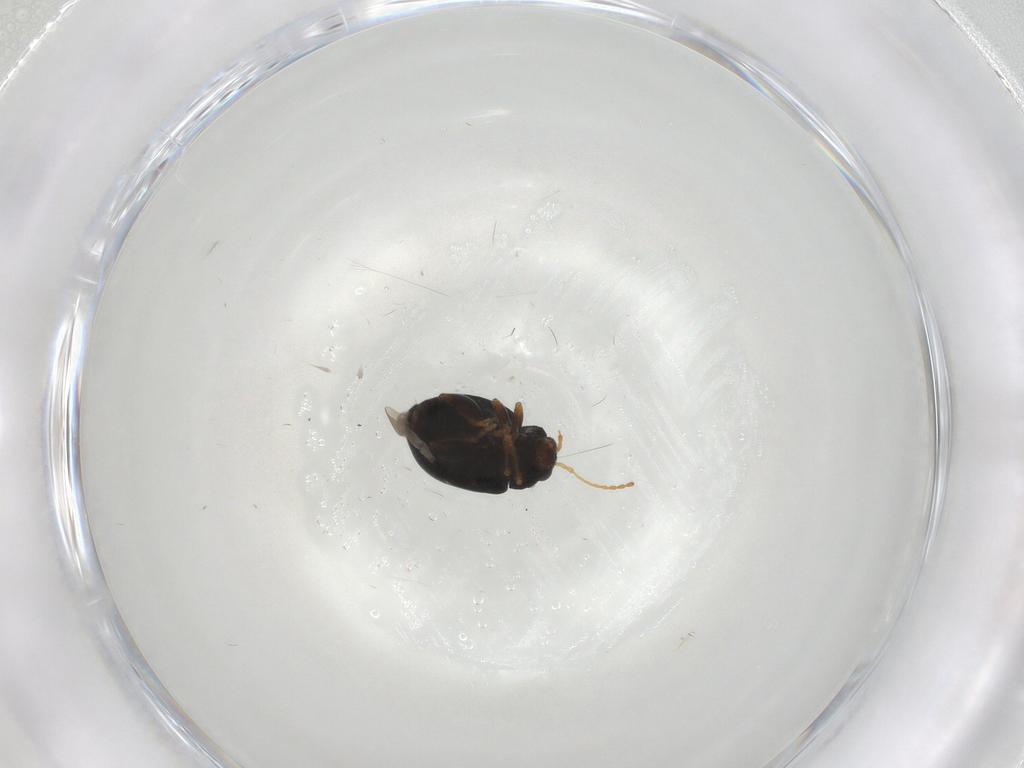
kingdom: Animalia
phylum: Arthropoda
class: Insecta
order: Coleoptera
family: Chrysomelidae
